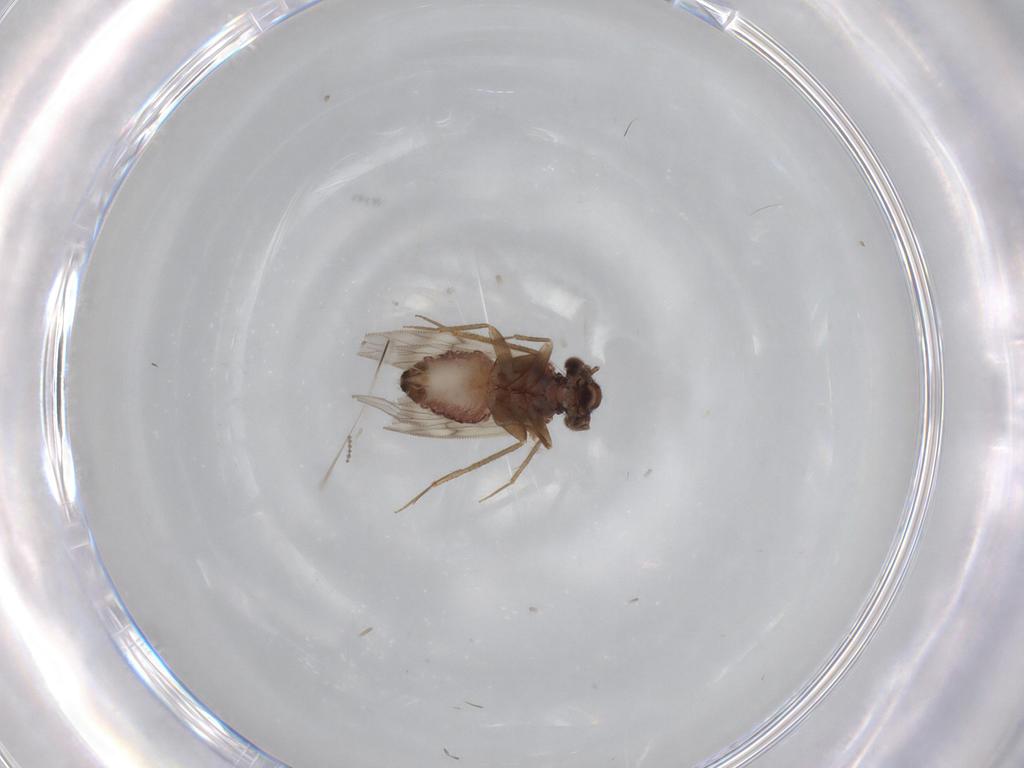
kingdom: Animalia
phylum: Arthropoda
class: Insecta
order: Psocodea
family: Lepidopsocidae
